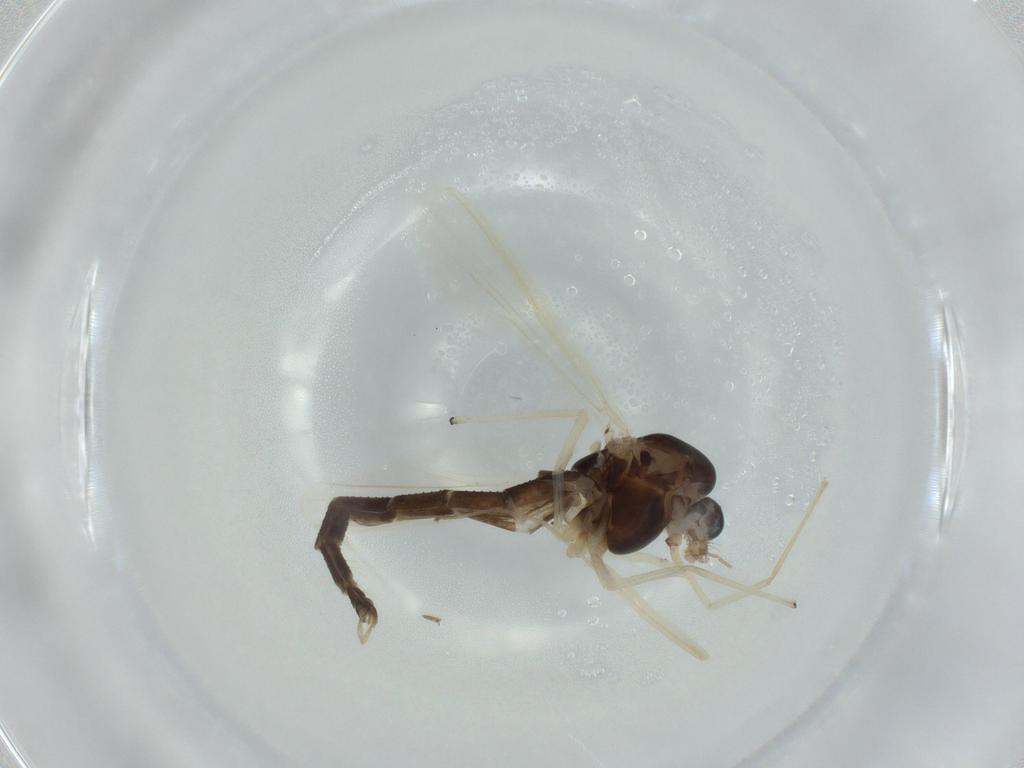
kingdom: Animalia
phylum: Arthropoda
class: Insecta
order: Diptera
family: Chironomidae
